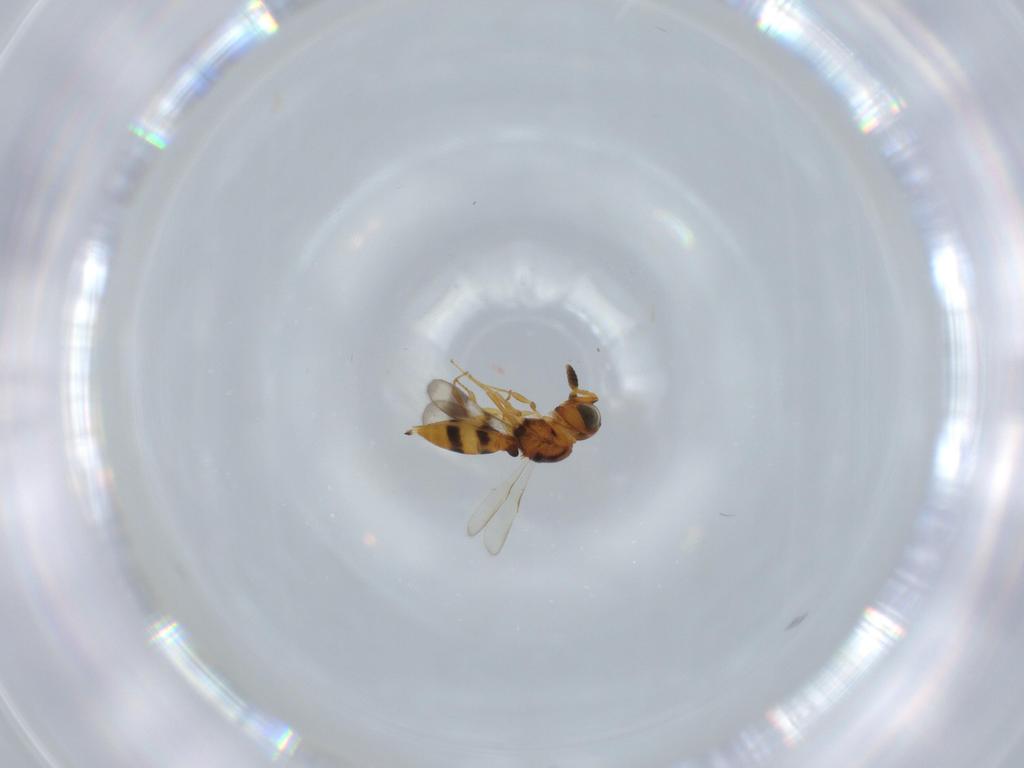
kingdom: Animalia
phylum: Arthropoda
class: Insecta
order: Hymenoptera
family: Scelionidae
